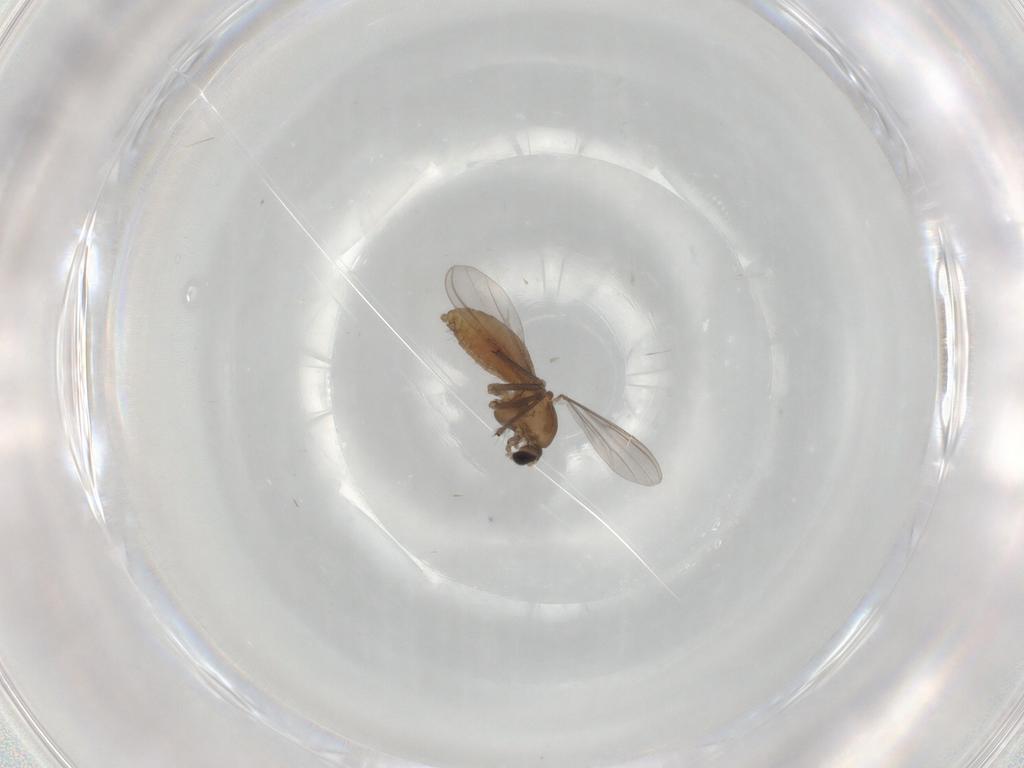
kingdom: Animalia
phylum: Arthropoda
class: Insecta
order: Diptera
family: Chironomidae
